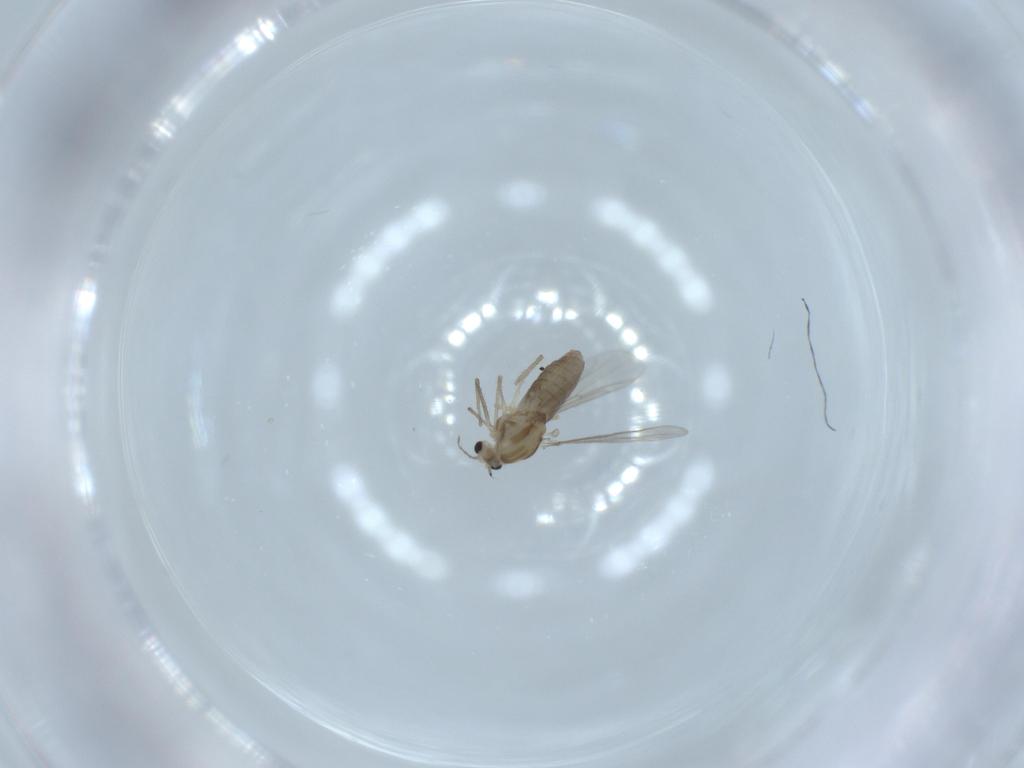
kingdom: Animalia
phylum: Arthropoda
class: Insecta
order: Diptera
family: Chironomidae
